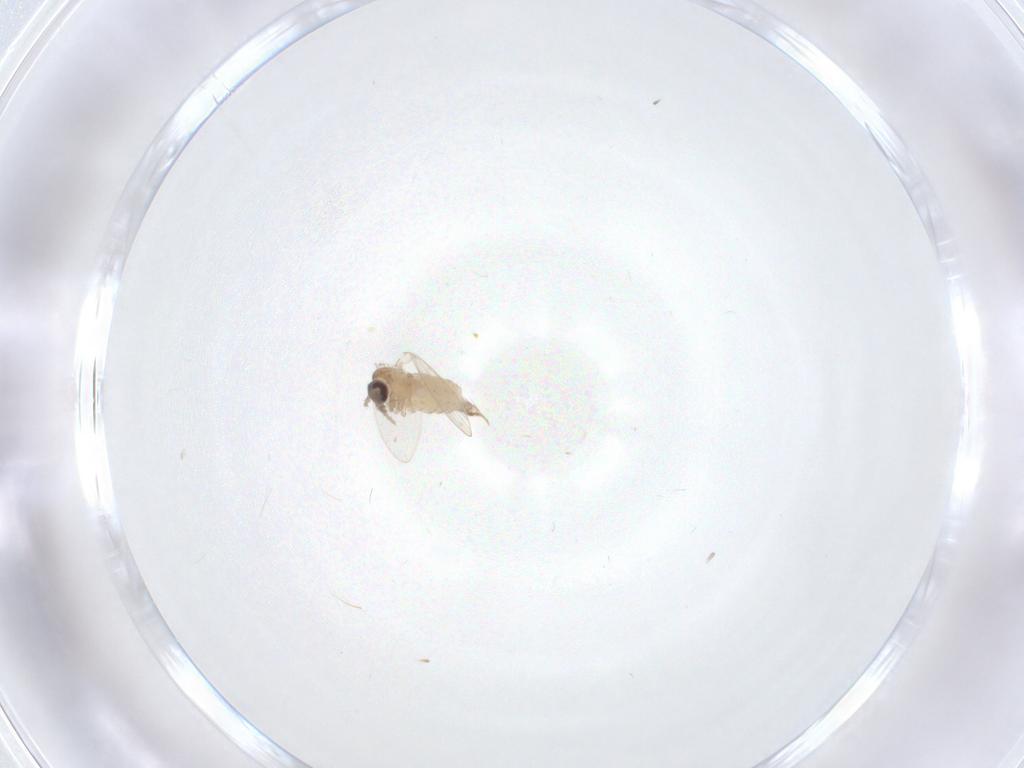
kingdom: Animalia
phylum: Arthropoda
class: Insecta
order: Diptera
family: Psychodidae
